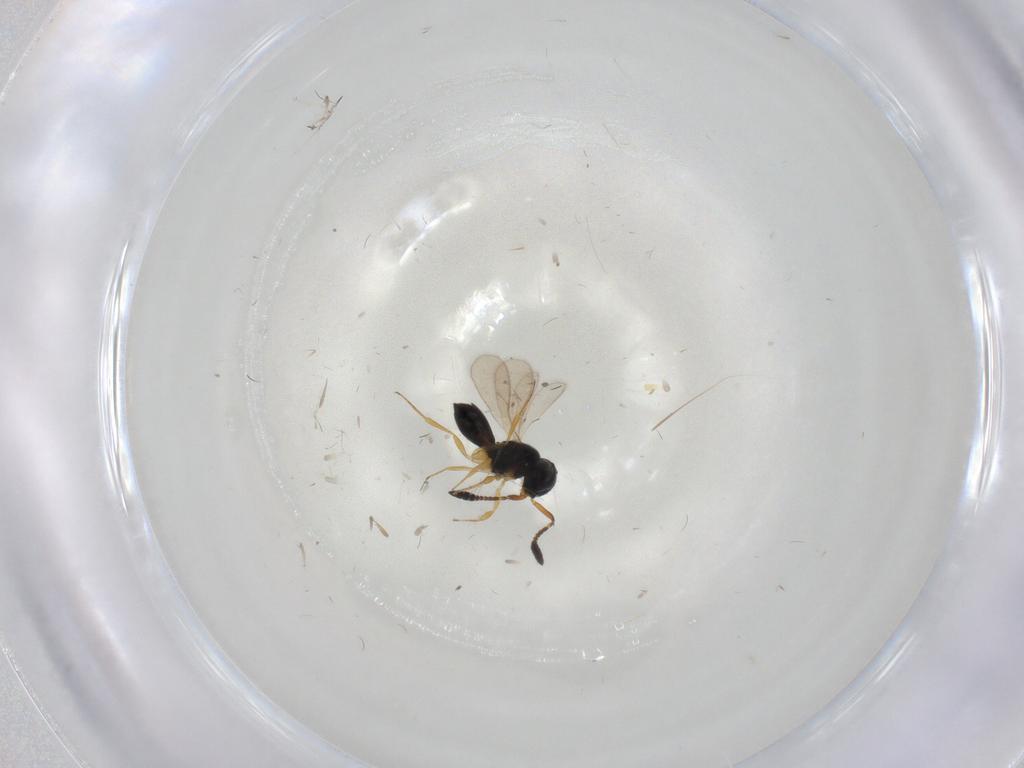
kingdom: Animalia
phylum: Arthropoda
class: Insecta
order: Hymenoptera
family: Scelionidae
